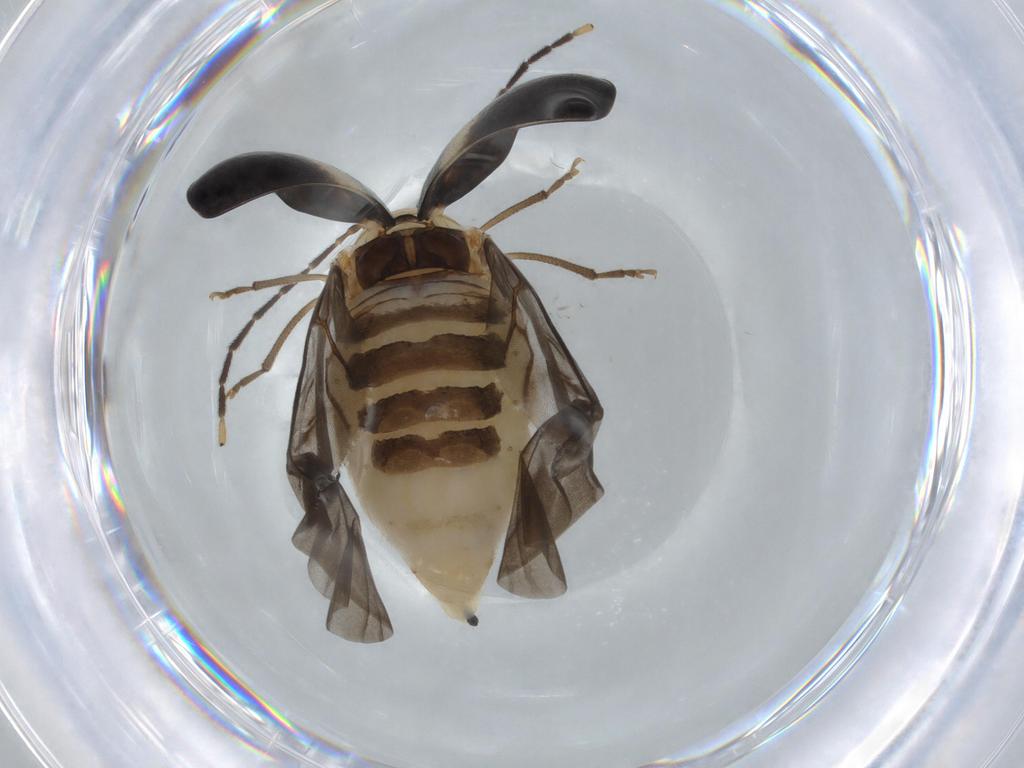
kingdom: Animalia
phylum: Arthropoda
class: Insecta
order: Coleoptera
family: Chrysomelidae
